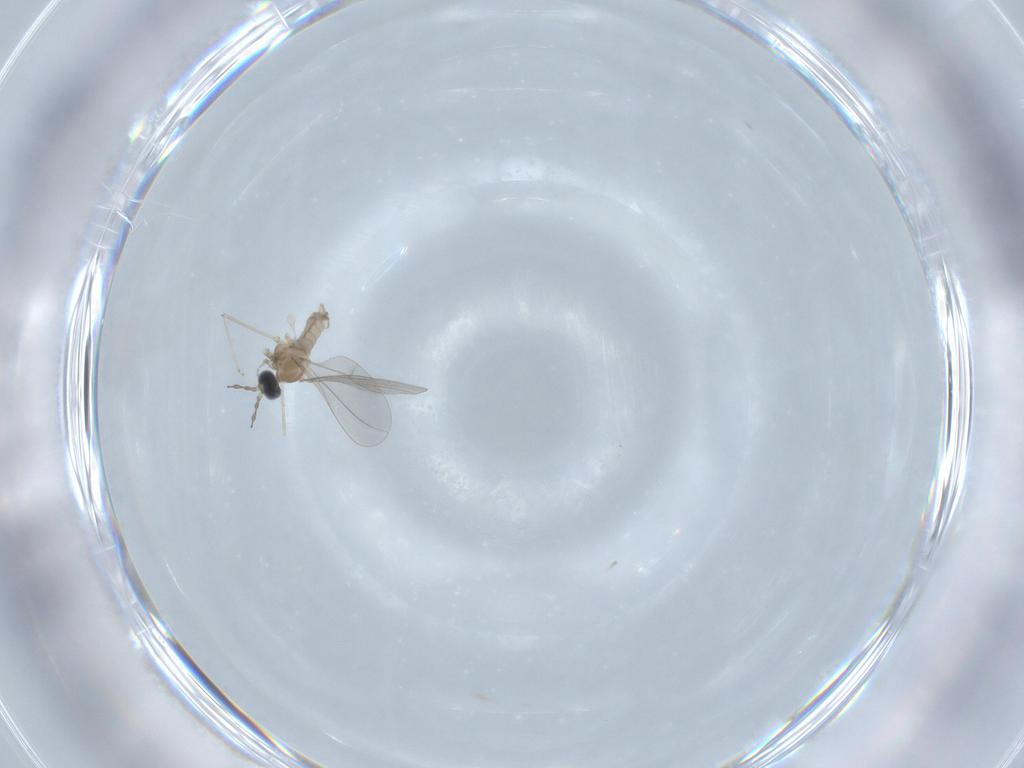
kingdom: Animalia
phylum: Arthropoda
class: Insecta
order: Diptera
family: Cecidomyiidae
